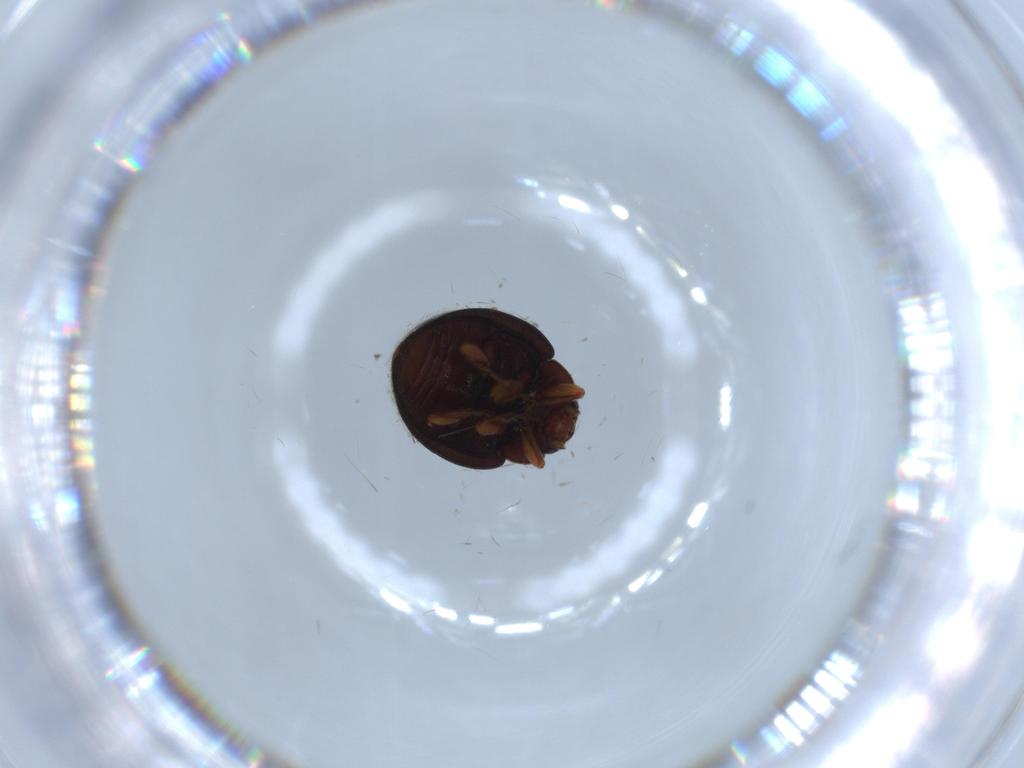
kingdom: Animalia
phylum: Arthropoda
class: Insecta
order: Coleoptera
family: Coccinellidae
